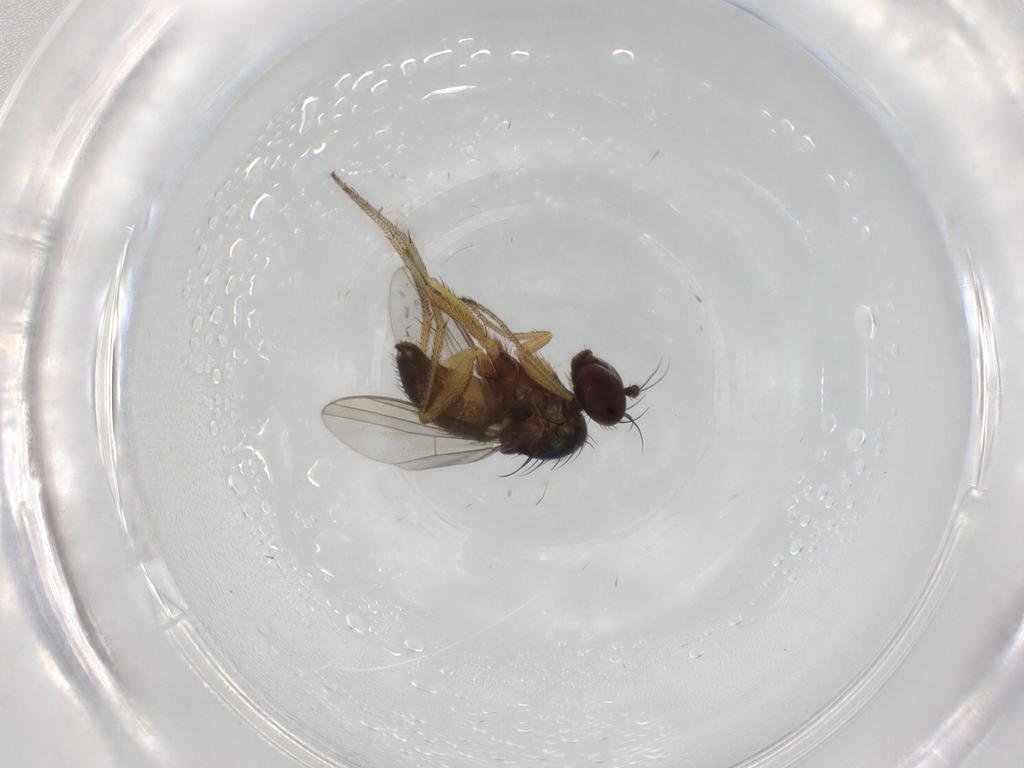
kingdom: Animalia
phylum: Arthropoda
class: Insecta
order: Diptera
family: Dolichopodidae
